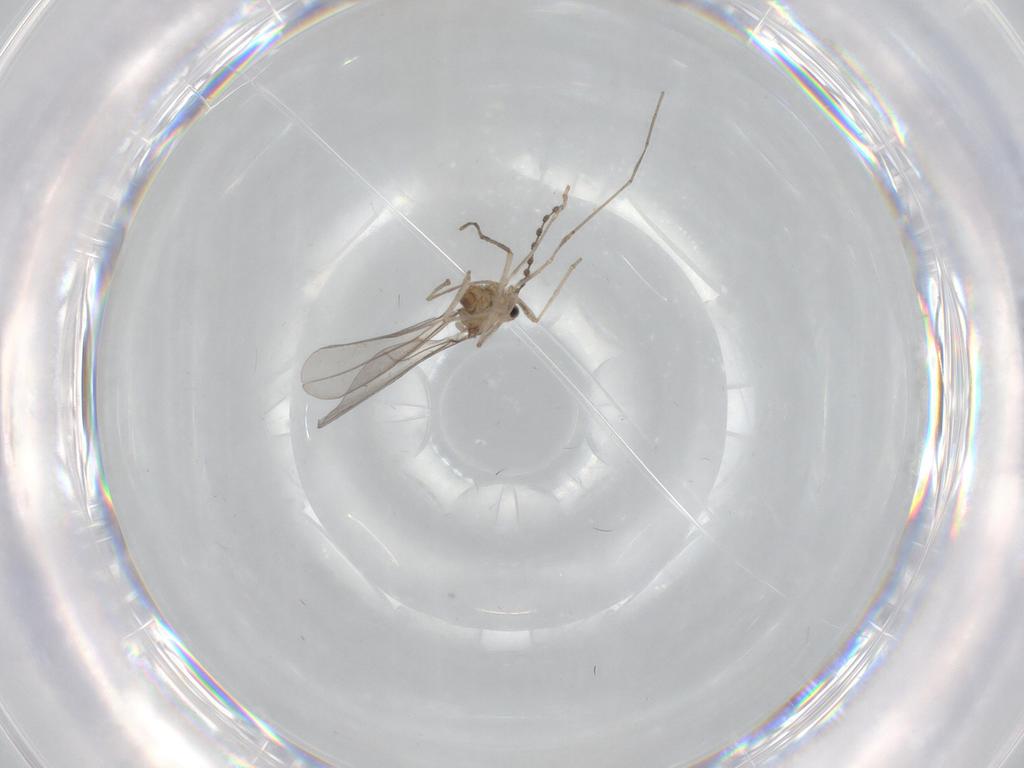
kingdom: Animalia
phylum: Arthropoda
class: Insecta
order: Diptera
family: Cecidomyiidae
